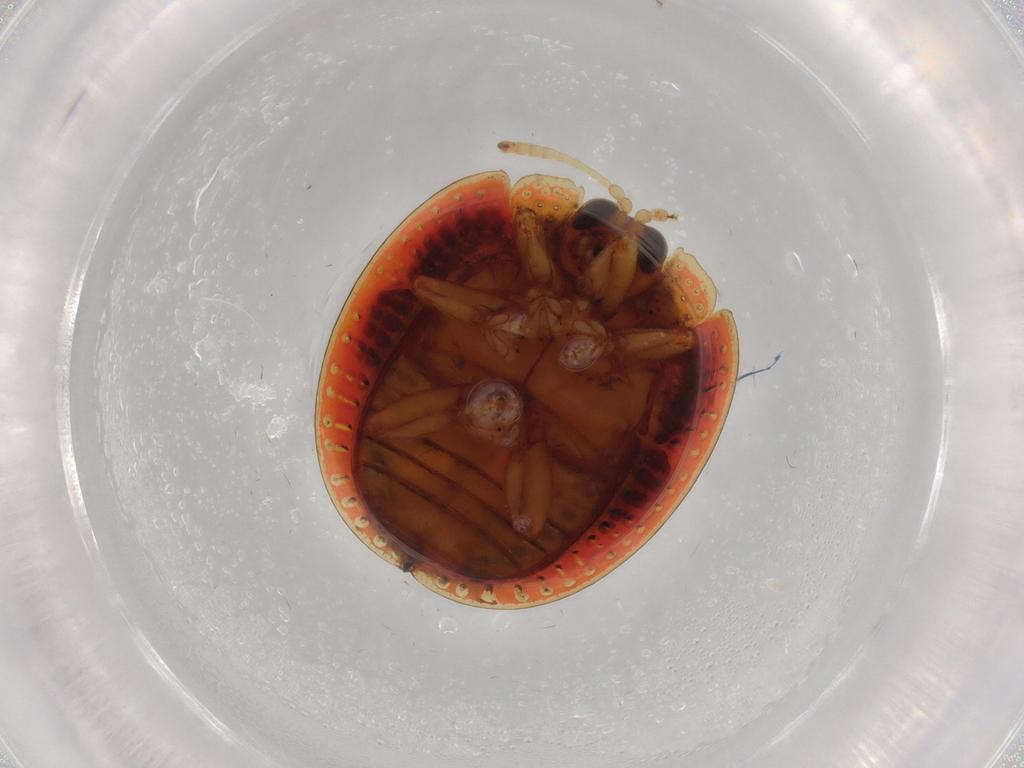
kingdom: Animalia
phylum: Arthropoda
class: Insecta
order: Coleoptera
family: Chrysomelidae
